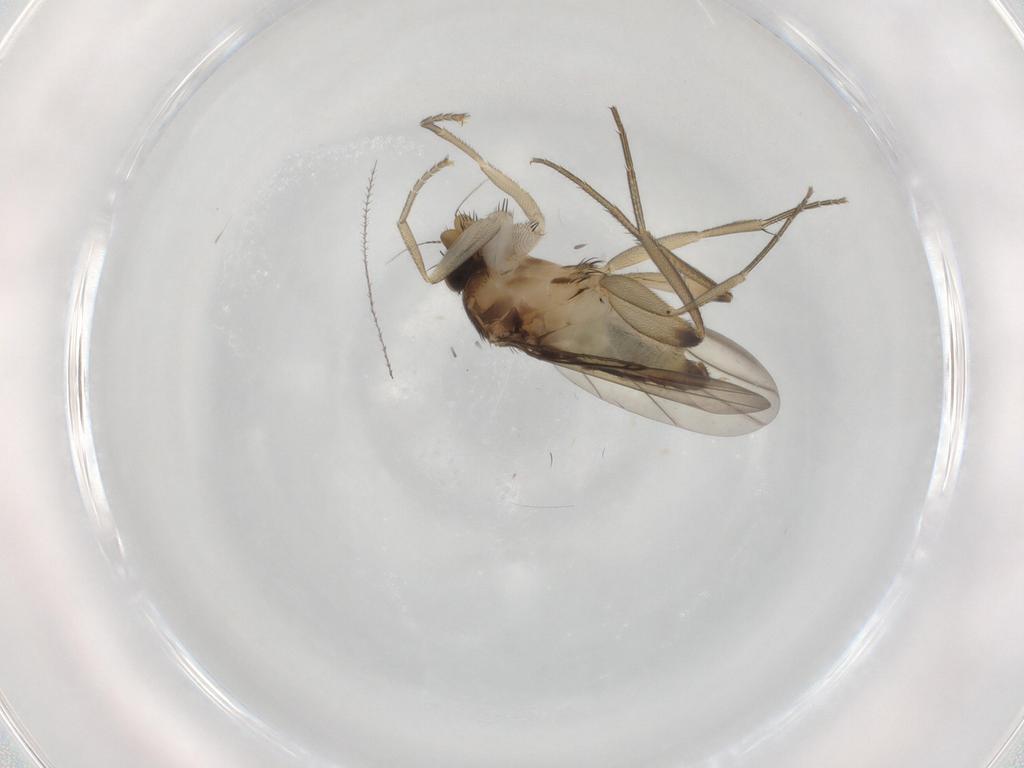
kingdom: Animalia
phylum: Arthropoda
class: Insecta
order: Diptera
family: Phoridae
